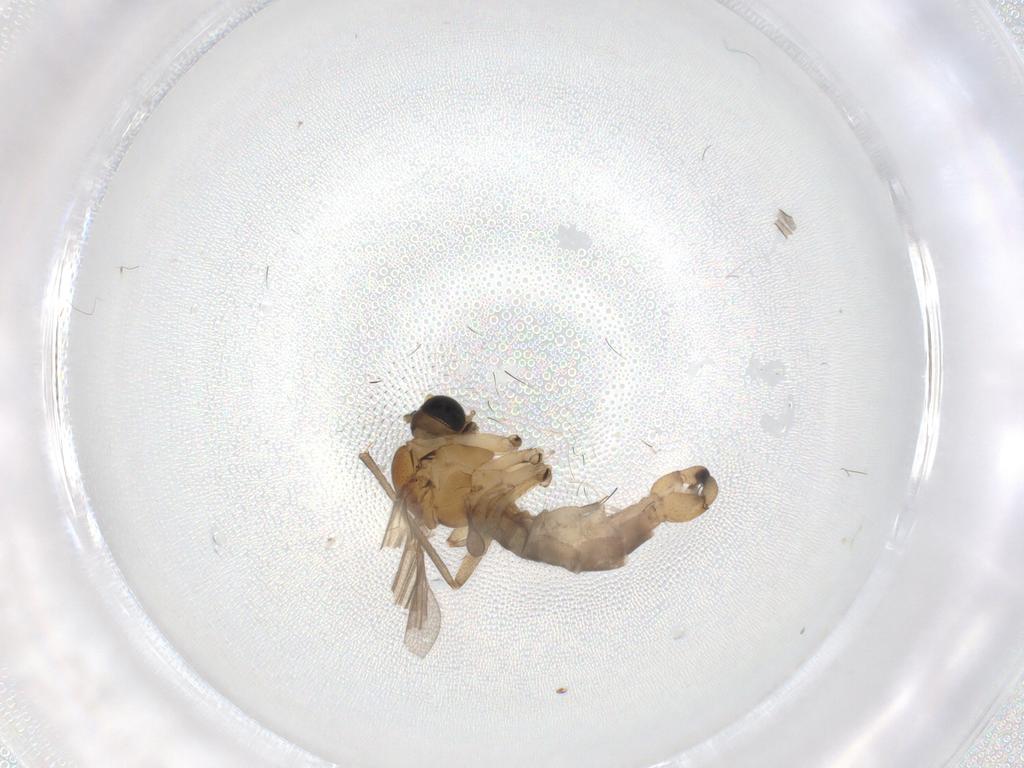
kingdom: Animalia
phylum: Arthropoda
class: Insecta
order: Diptera
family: Sciaridae
